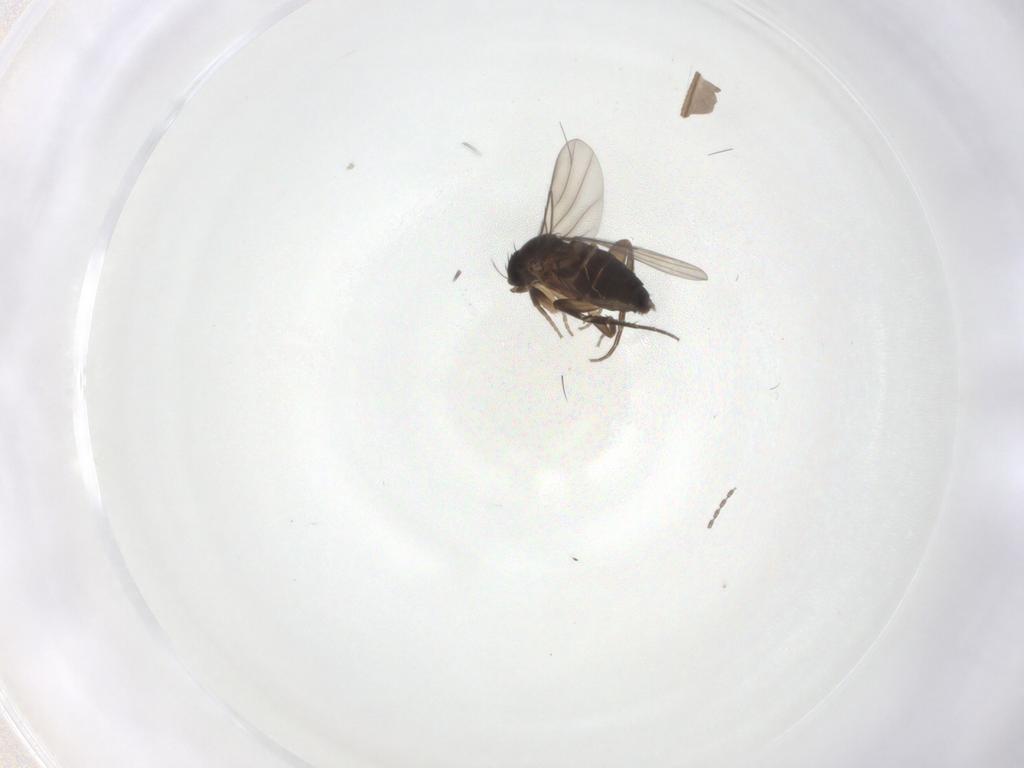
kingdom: Animalia
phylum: Arthropoda
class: Insecta
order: Diptera
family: Phoridae
